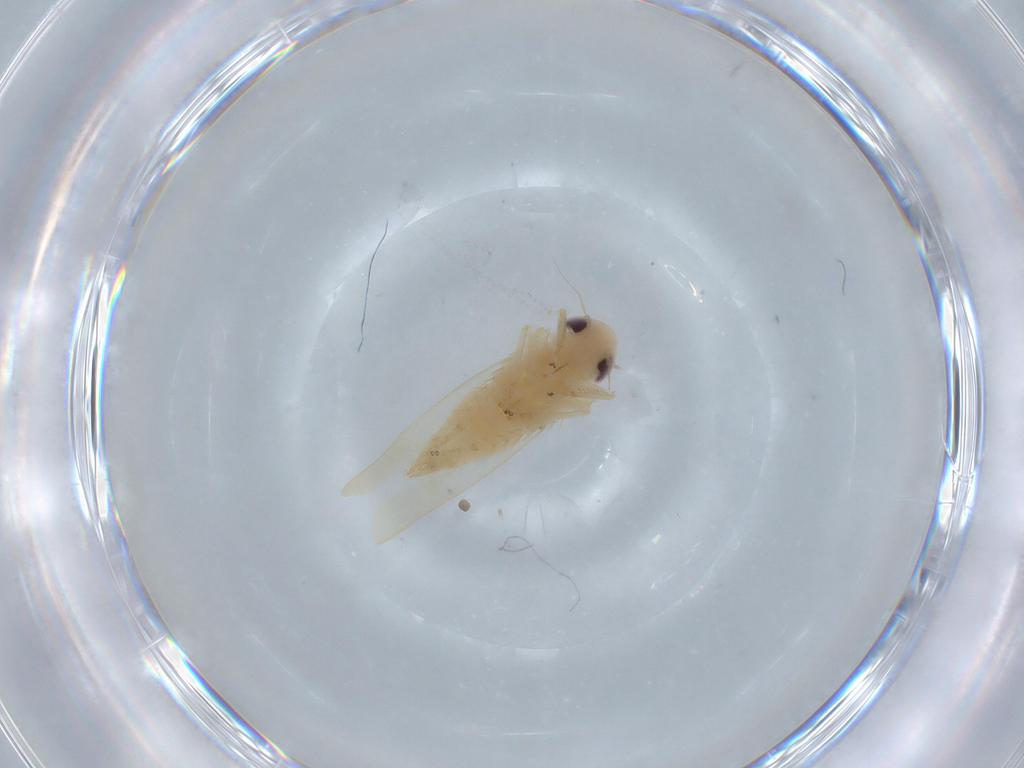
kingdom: Animalia
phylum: Arthropoda
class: Insecta
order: Hemiptera
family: Cicadellidae
